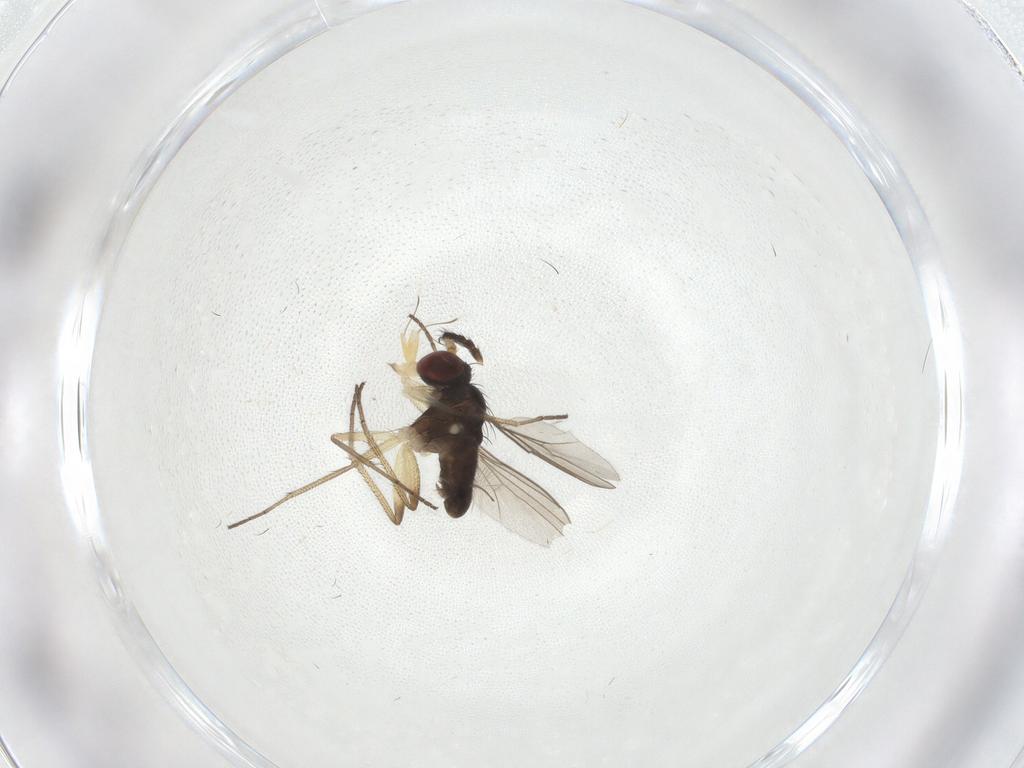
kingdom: Animalia
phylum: Arthropoda
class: Insecta
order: Diptera
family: Dolichopodidae
